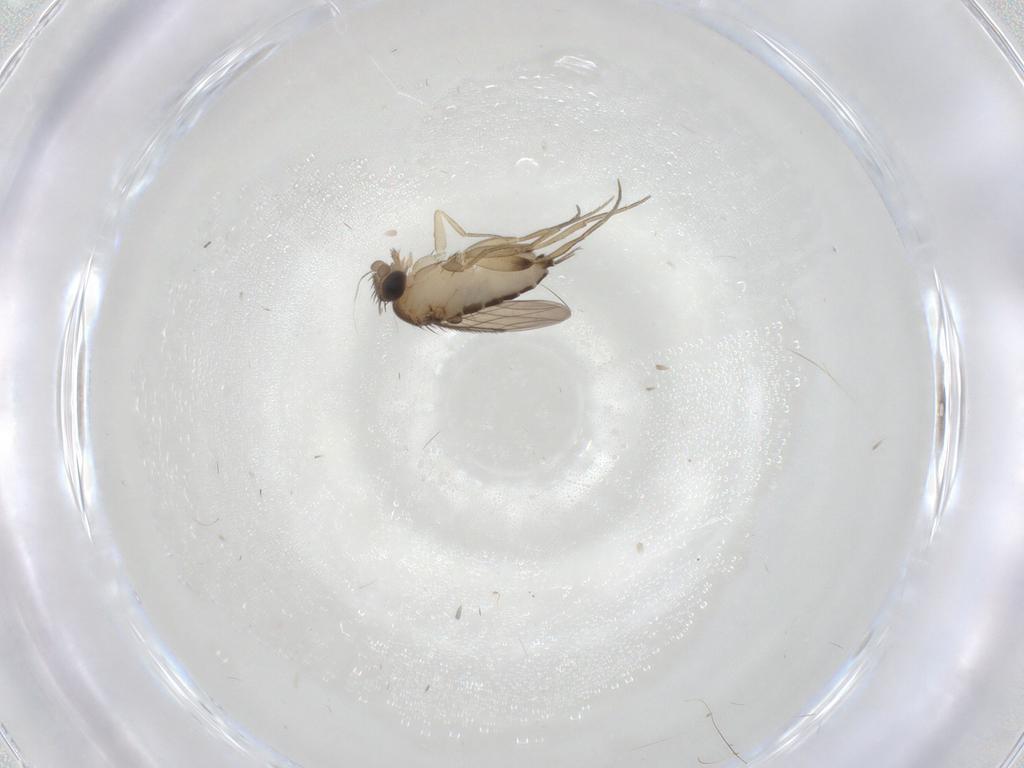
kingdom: Animalia
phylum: Arthropoda
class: Insecta
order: Diptera
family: Phoridae
